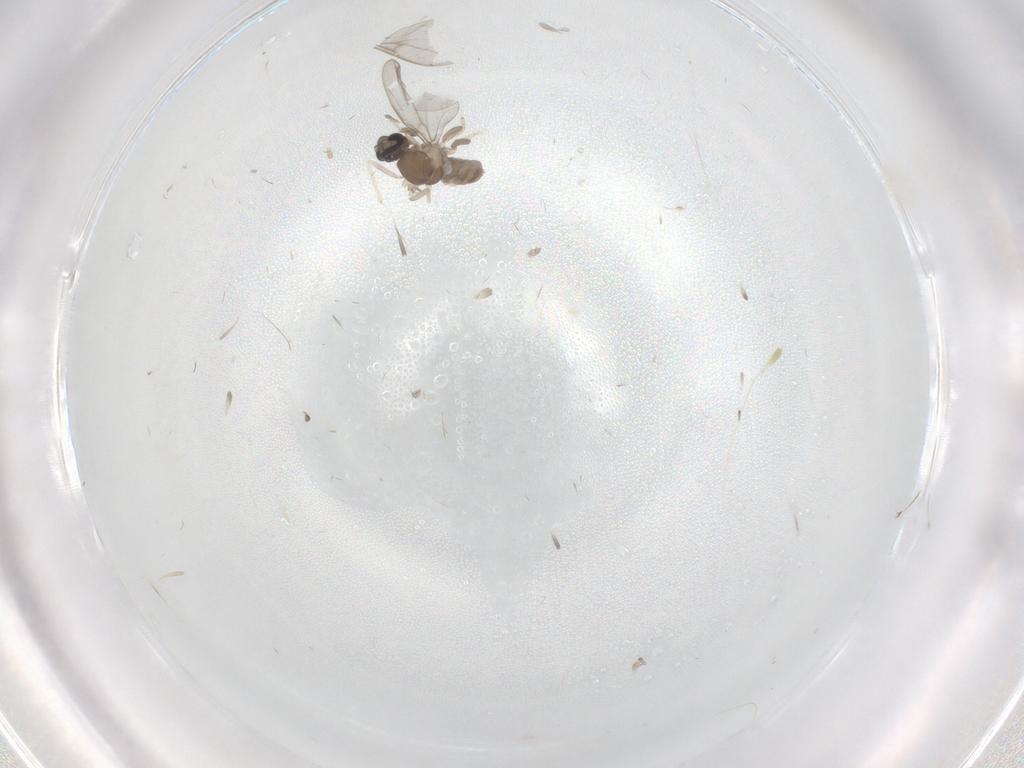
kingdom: Animalia
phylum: Arthropoda
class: Insecta
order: Diptera
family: Cecidomyiidae
